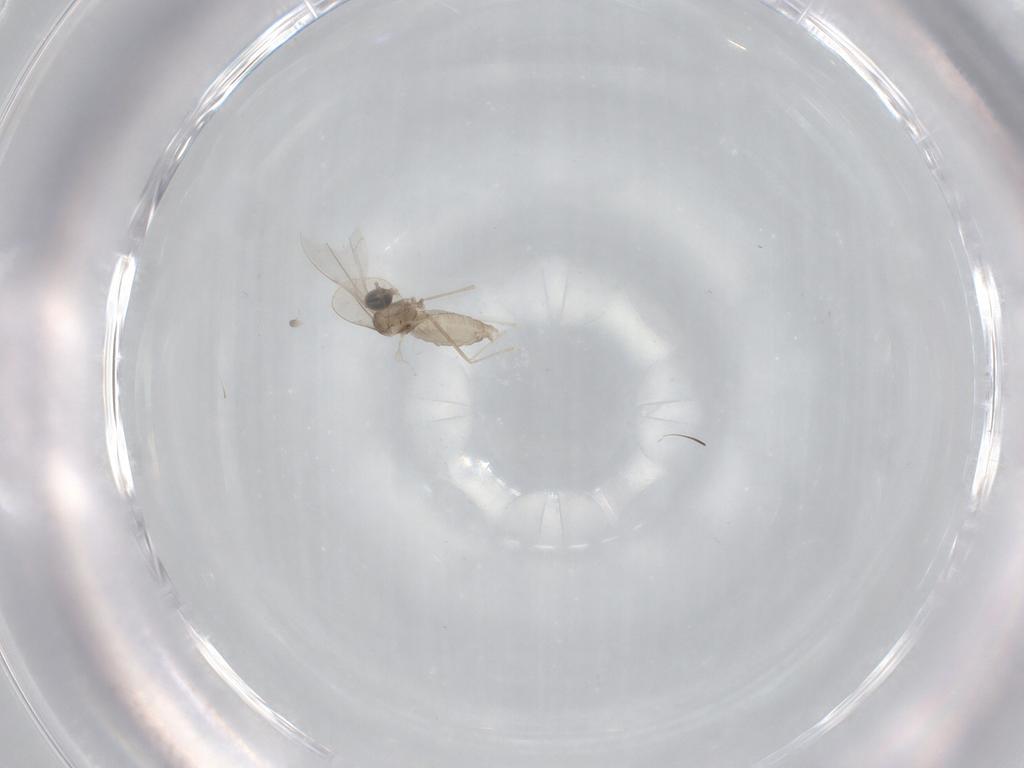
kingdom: Animalia
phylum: Arthropoda
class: Insecta
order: Diptera
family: Cecidomyiidae
